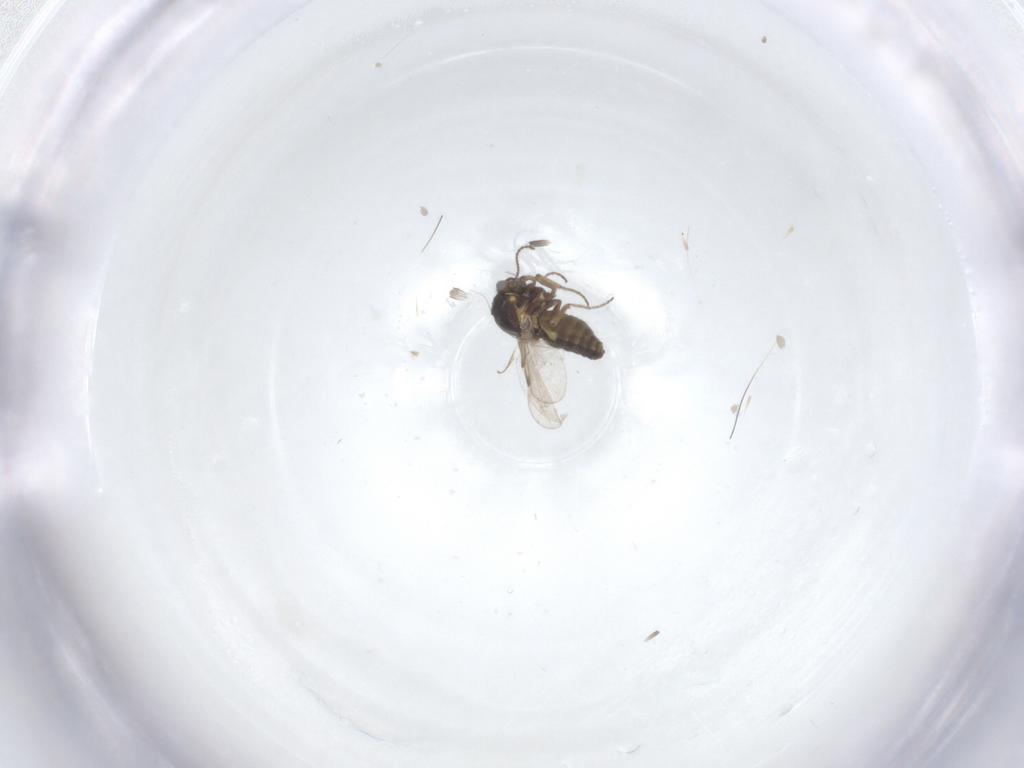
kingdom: Animalia
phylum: Arthropoda
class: Insecta
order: Diptera
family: Ceratopogonidae
